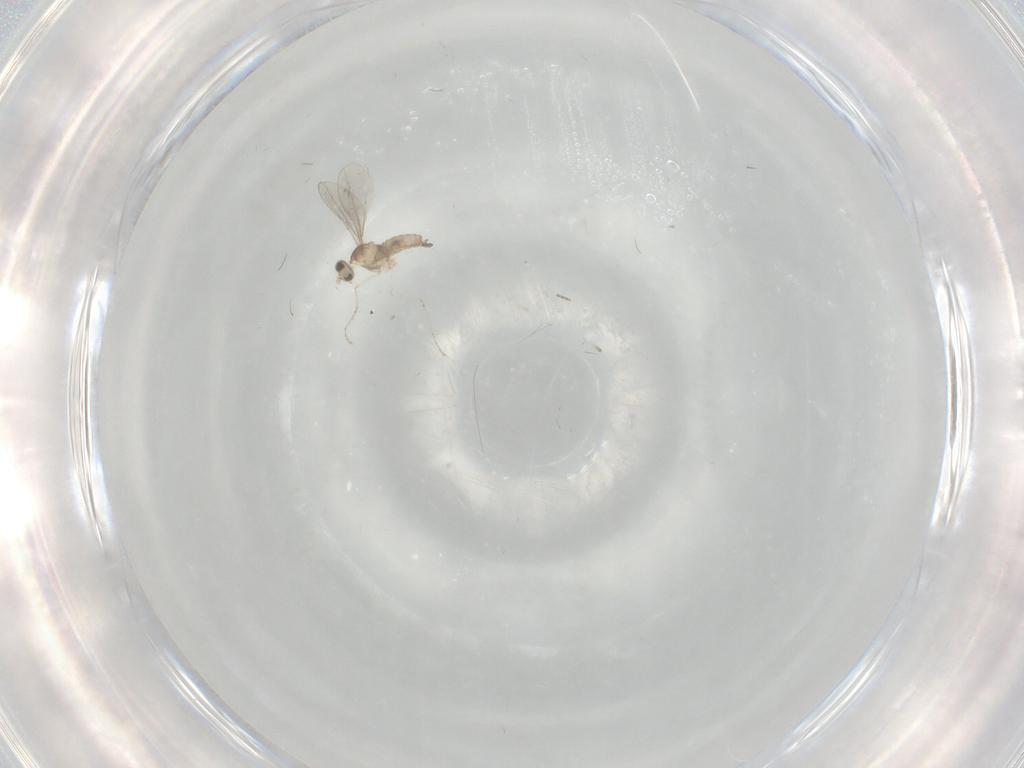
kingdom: Animalia
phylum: Arthropoda
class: Insecta
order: Diptera
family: Cecidomyiidae
